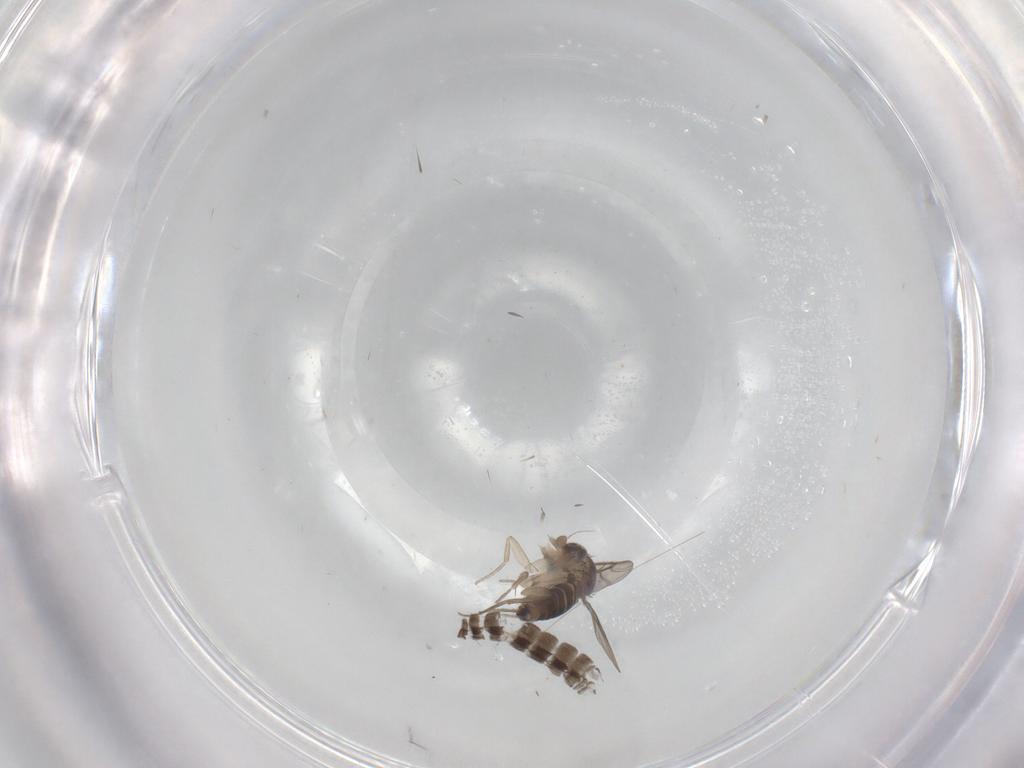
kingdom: Animalia
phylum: Arthropoda
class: Insecta
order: Diptera
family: Phoridae
